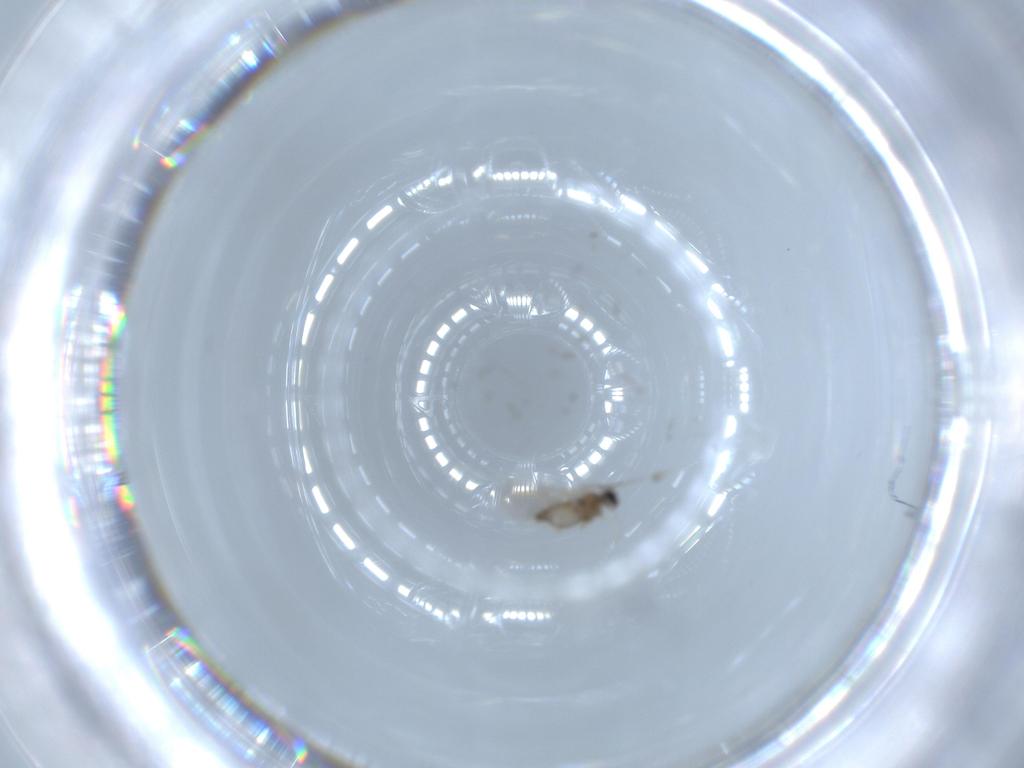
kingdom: Animalia
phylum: Arthropoda
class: Insecta
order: Diptera
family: Cecidomyiidae
